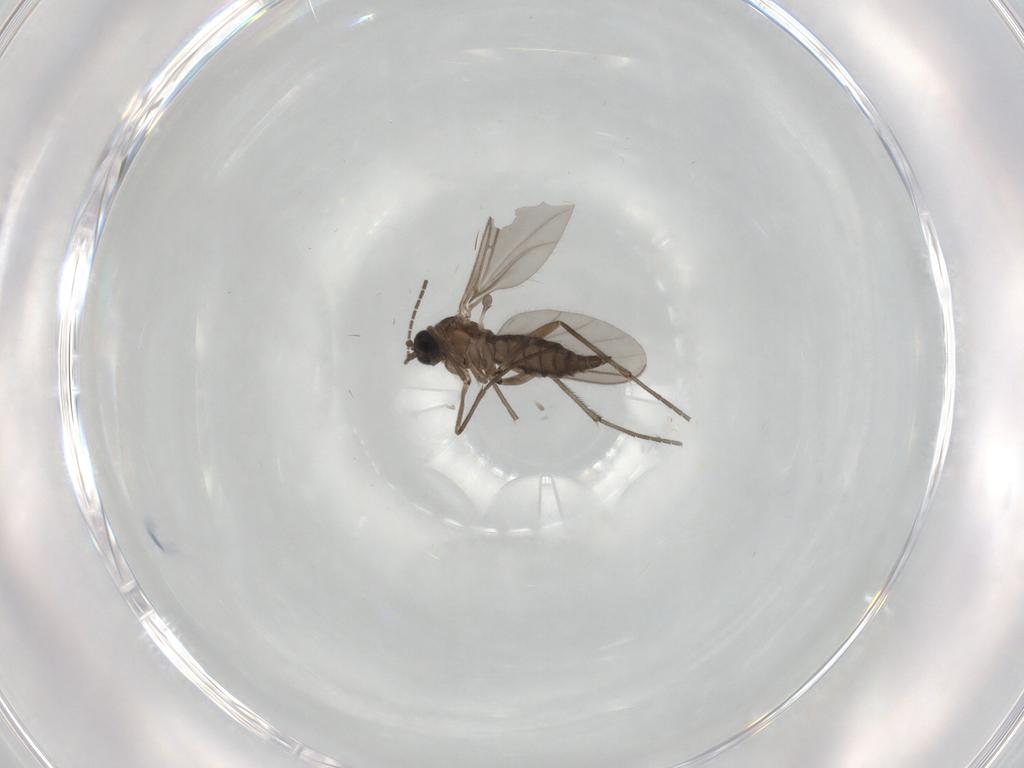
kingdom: Animalia
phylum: Arthropoda
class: Insecta
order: Diptera
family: Sciaridae
